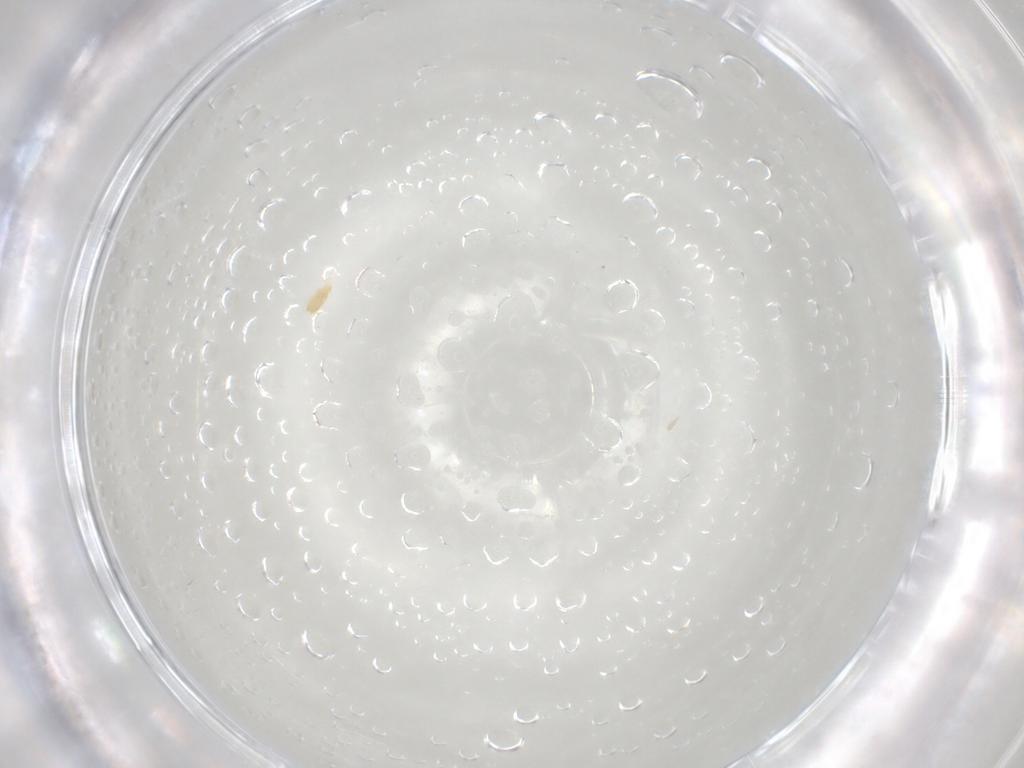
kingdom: Animalia
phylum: Arthropoda
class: Arachnida
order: Trombidiformes
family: Eupodidae
